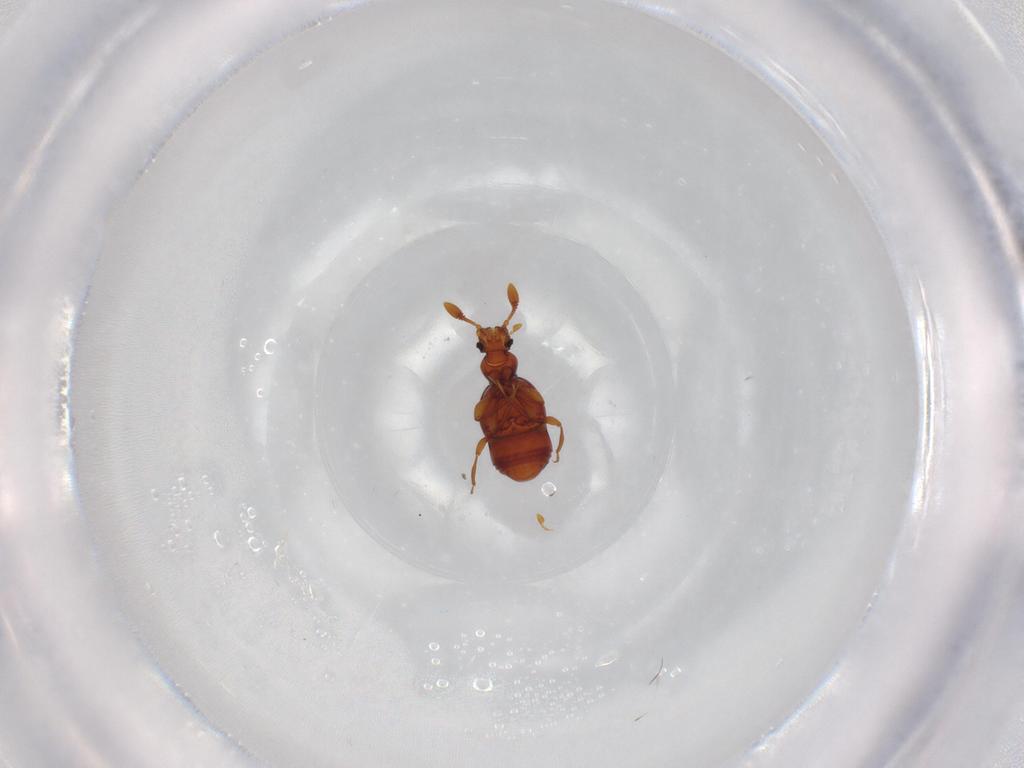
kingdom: Animalia
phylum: Arthropoda
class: Insecta
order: Coleoptera
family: Staphylinidae
